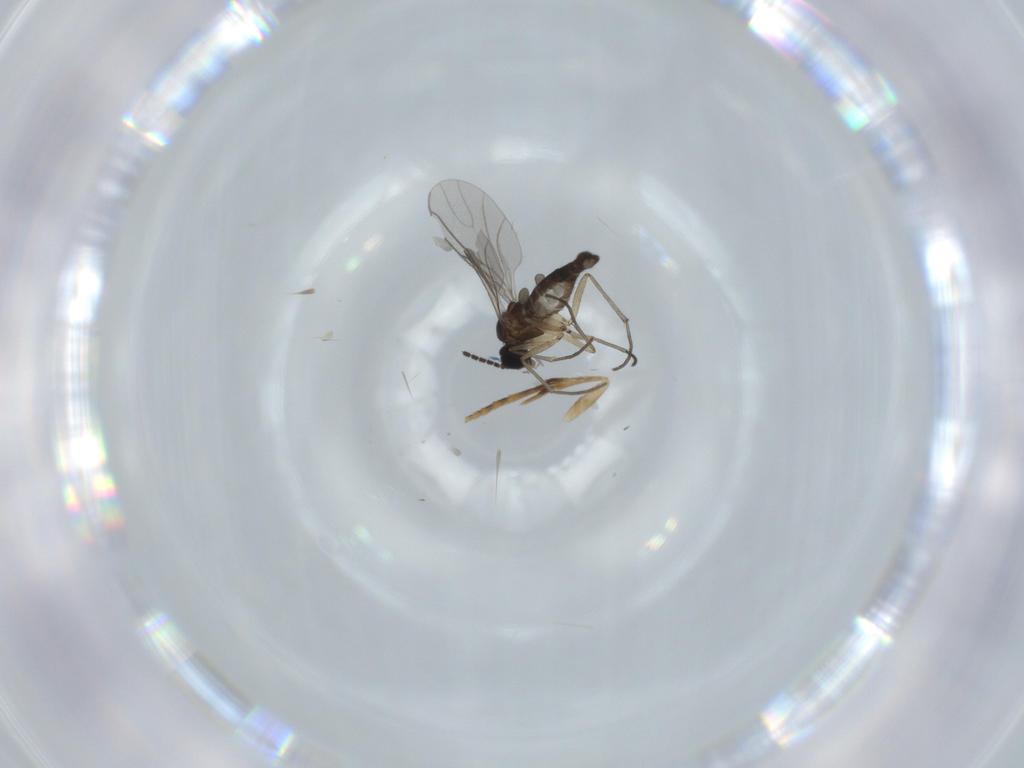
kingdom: Animalia
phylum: Arthropoda
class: Insecta
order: Diptera
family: Sciaridae
